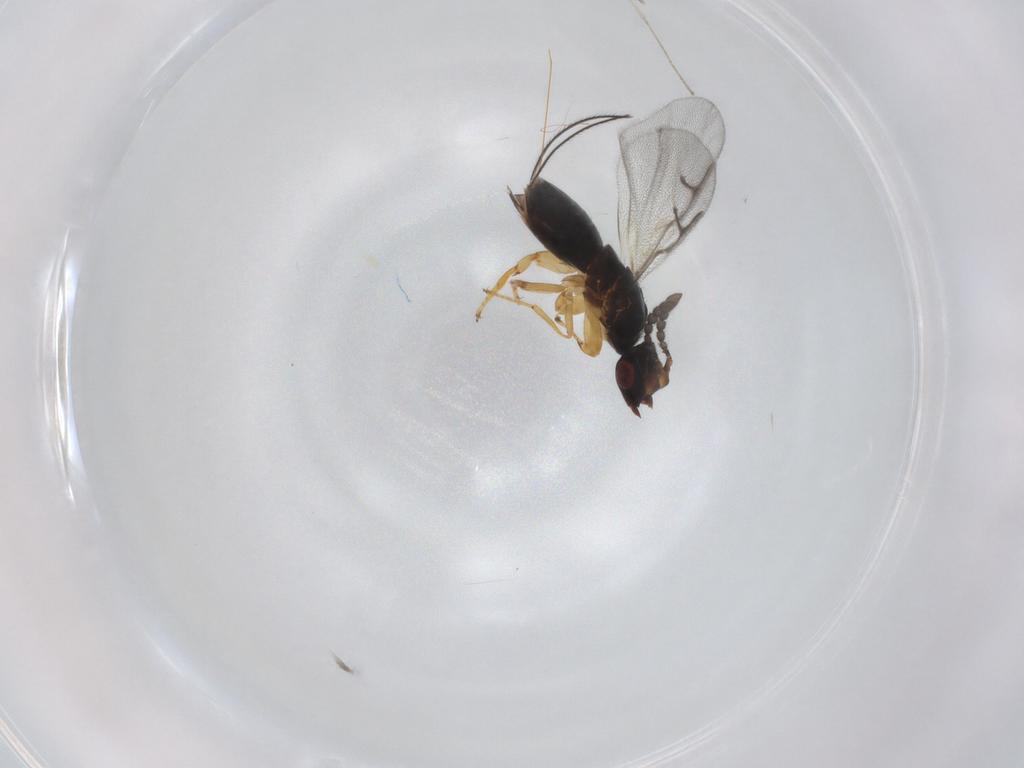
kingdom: Animalia
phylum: Arthropoda
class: Insecta
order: Hymenoptera
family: Agaonidae
